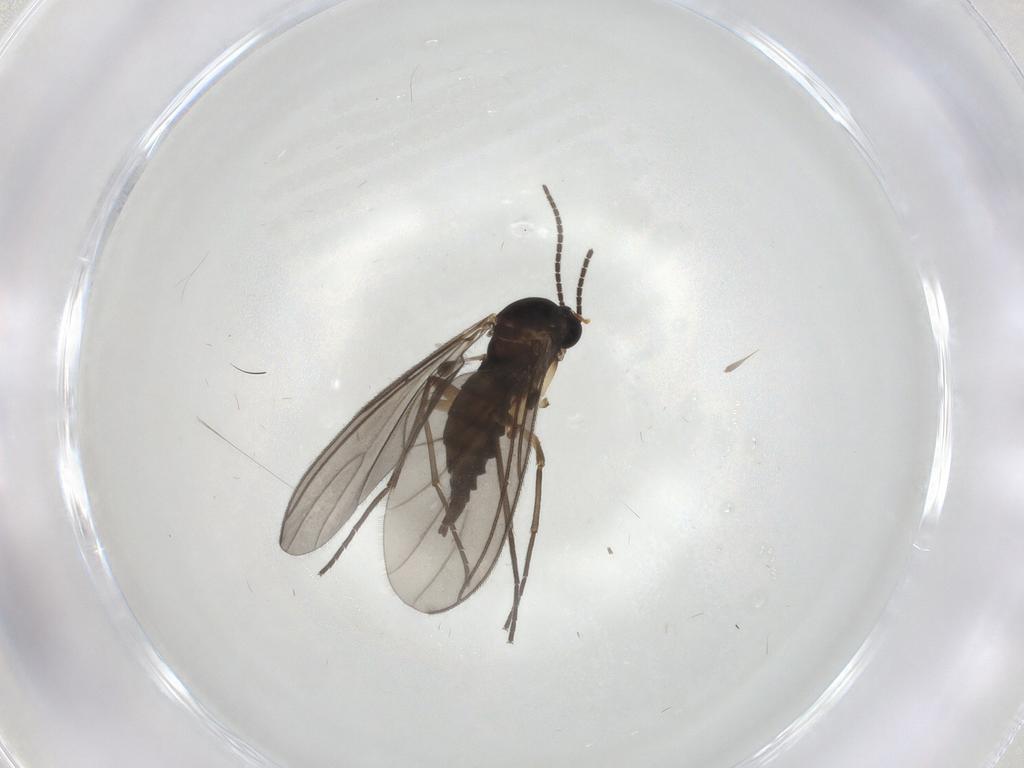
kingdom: Animalia
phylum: Arthropoda
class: Insecta
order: Diptera
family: Sciaridae
